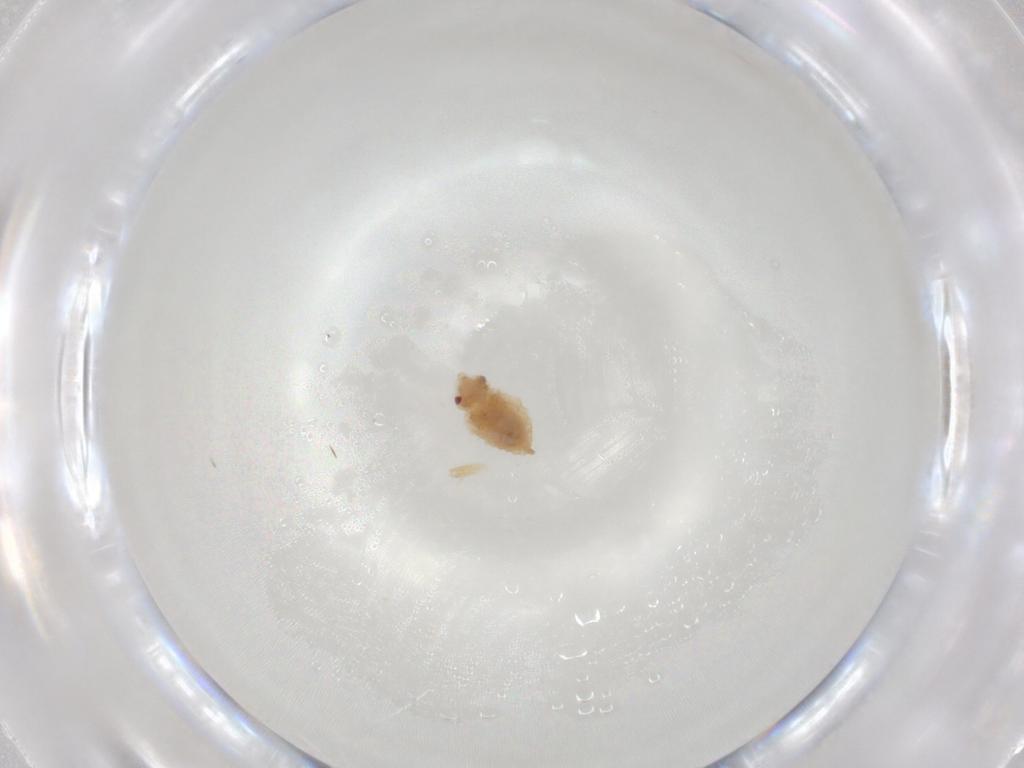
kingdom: Animalia
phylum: Arthropoda
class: Insecta
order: Hemiptera
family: Miridae
